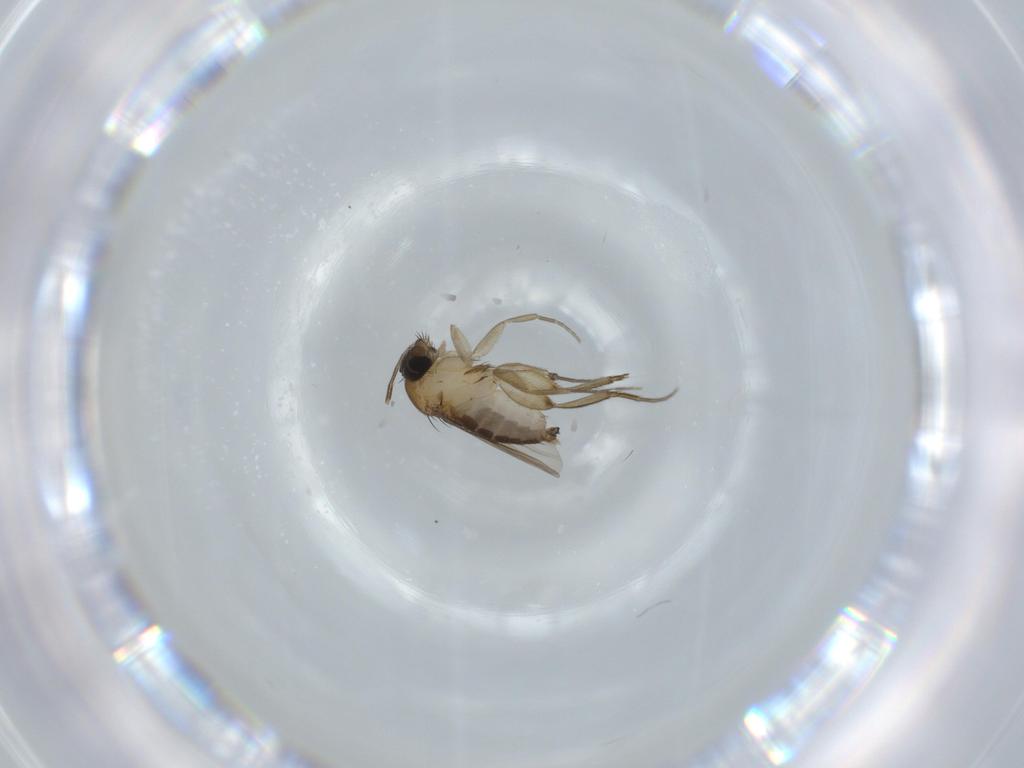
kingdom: Animalia
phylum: Arthropoda
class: Insecta
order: Diptera
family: Phoridae
